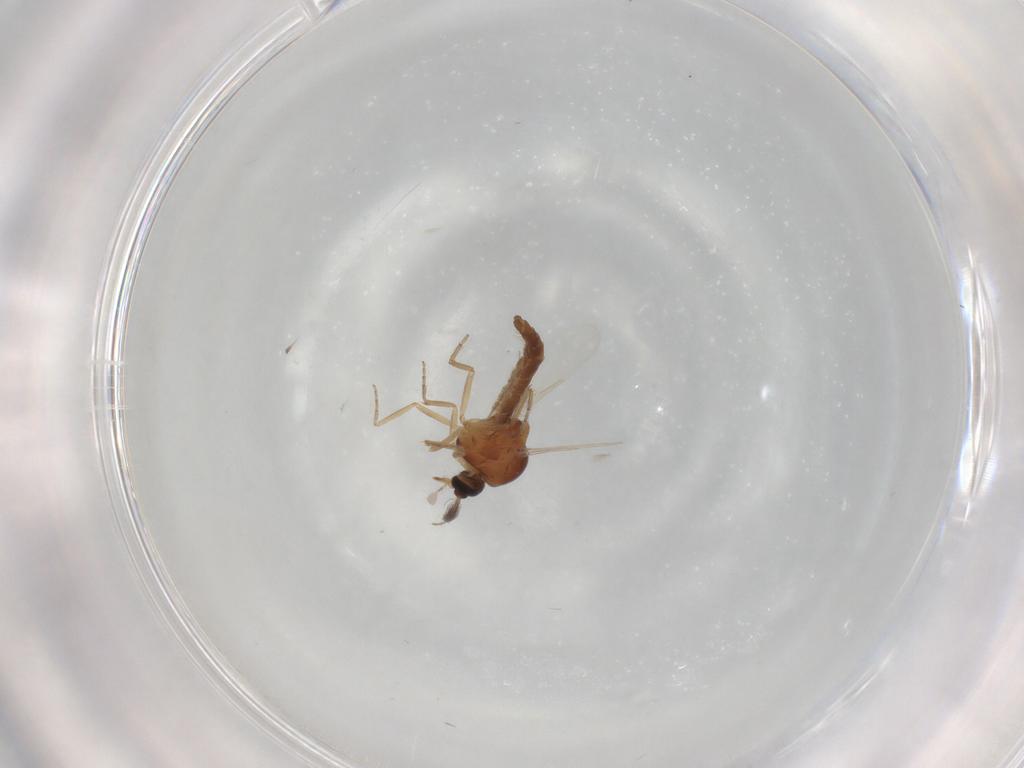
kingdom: Animalia
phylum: Arthropoda
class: Insecta
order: Diptera
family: Ceratopogonidae
